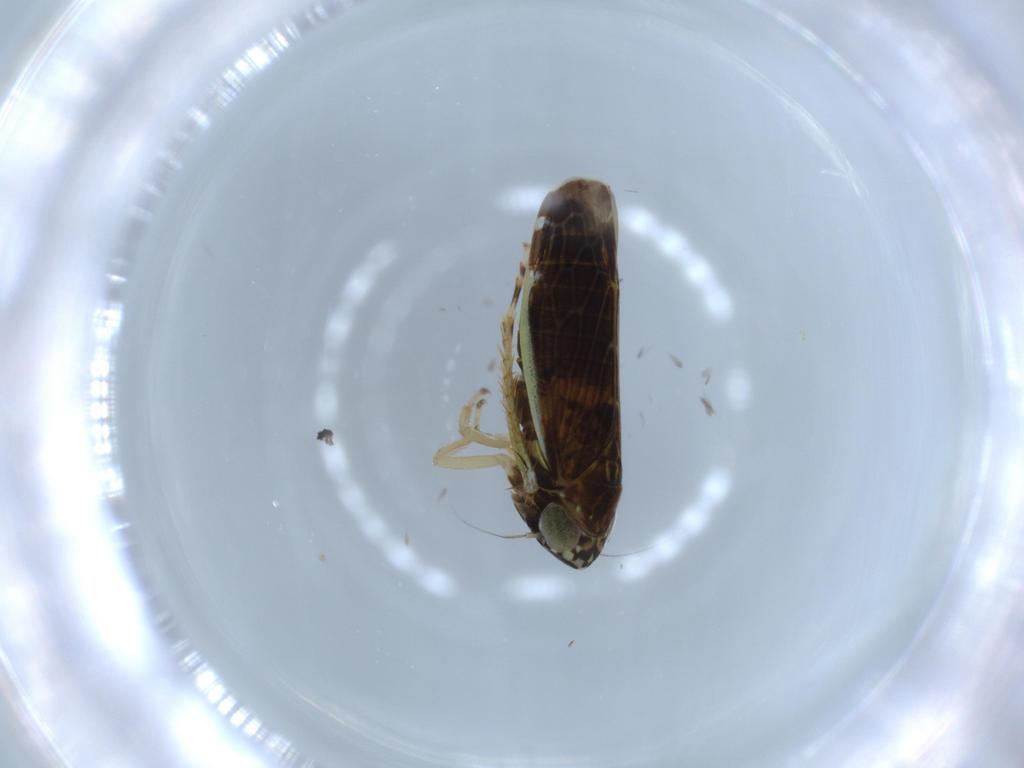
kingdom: Animalia
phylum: Arthropoda
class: Insecta
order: Hemiptera
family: Cicadellidae
